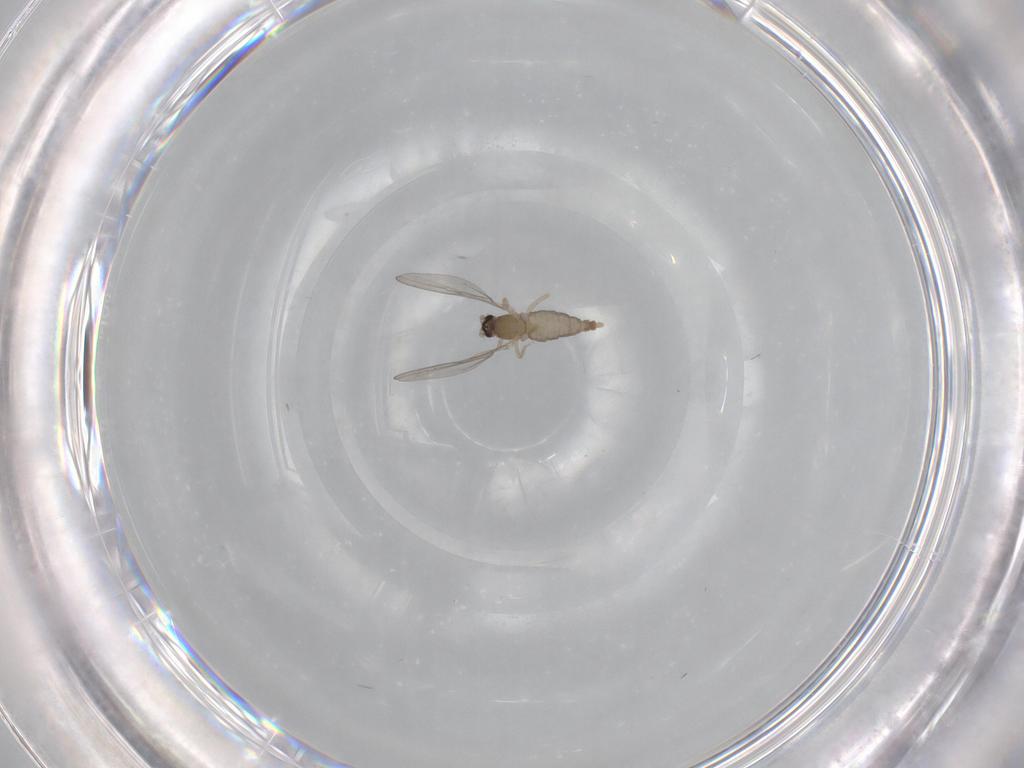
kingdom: Animalia
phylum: Arthropoda
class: Insecta
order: Diptera
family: Cecidomyiidae
